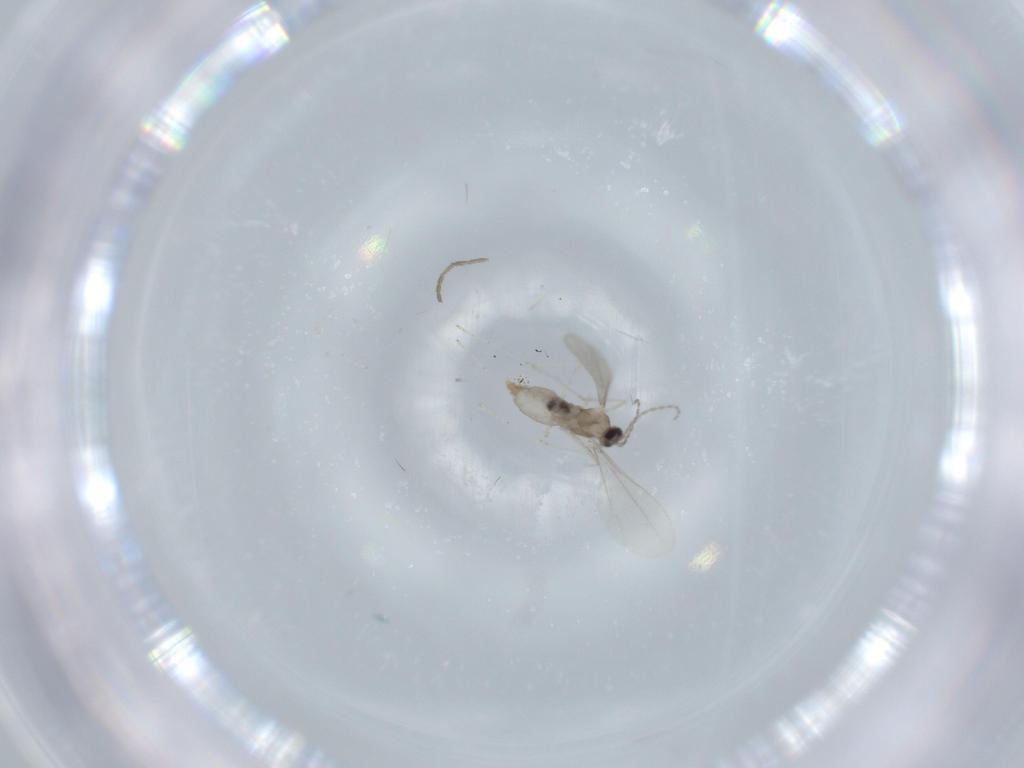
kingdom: Animalia
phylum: Arthropoda
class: Insecta
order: Diptera
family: Cecidomyiidae
